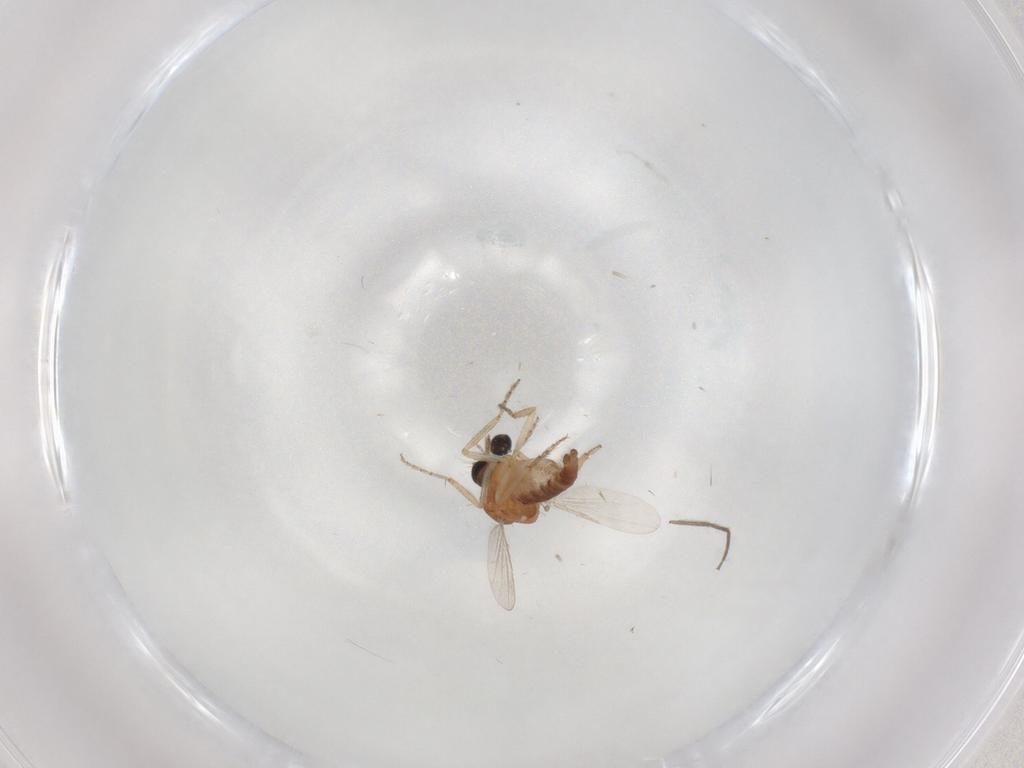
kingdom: Animalia
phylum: Arthropoda
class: Insecta
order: Diptera
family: Ceratopogonidae
